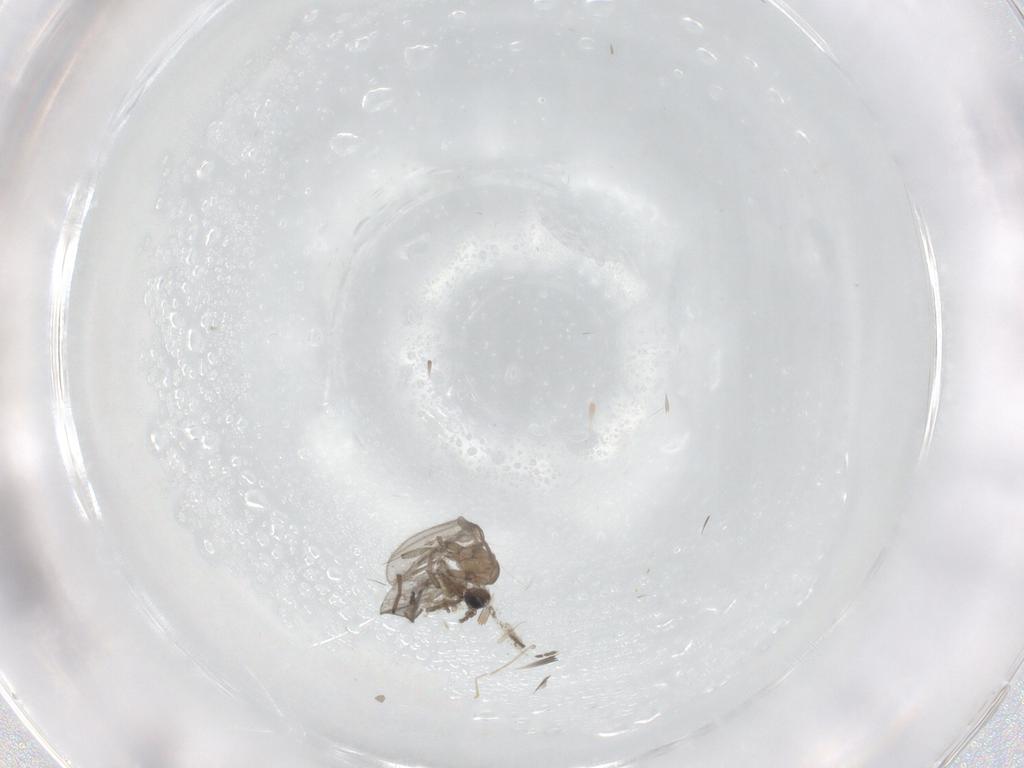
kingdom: Animalia
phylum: Arthropoda
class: Insecta
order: Diptera
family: Sciaridae
